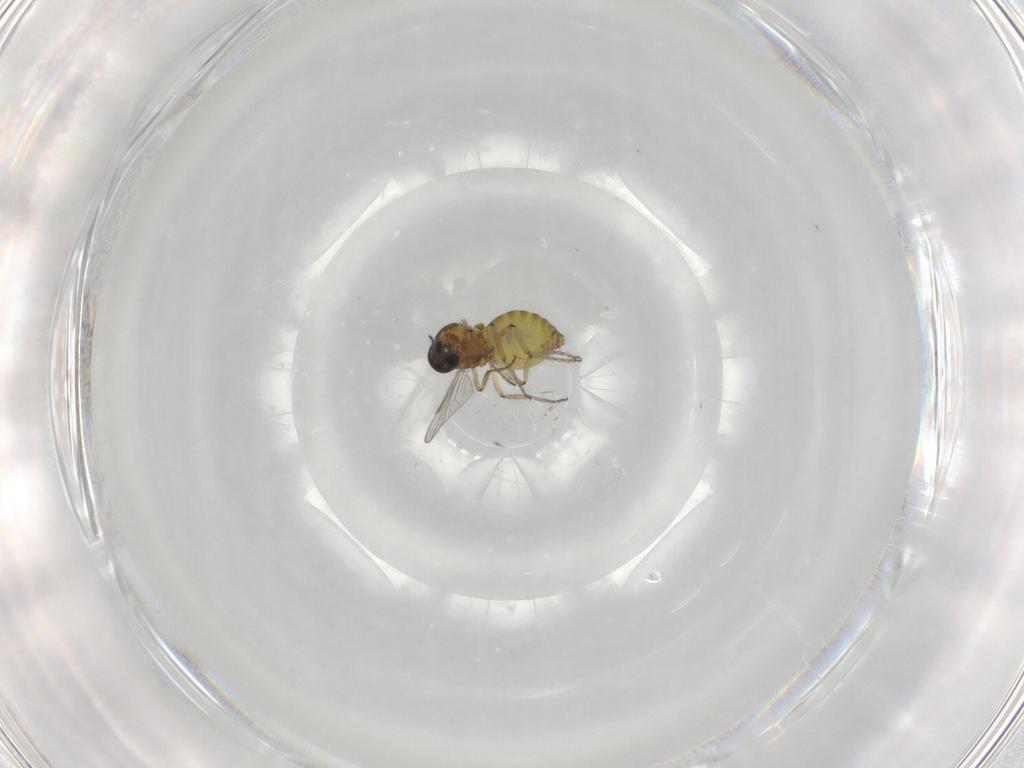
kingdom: Animalia
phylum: Arthropoda
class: Insecta
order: Diptera
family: Ceratopogonidae
